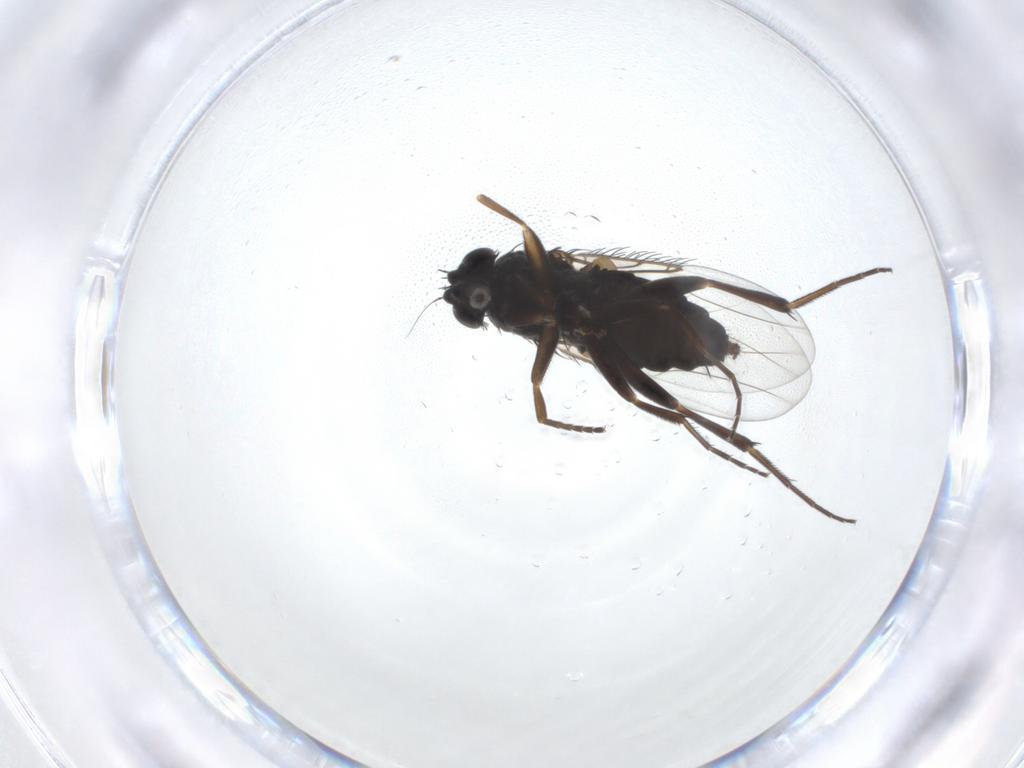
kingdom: Animalia
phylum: Arthropoda
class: Insecta
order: Diptera
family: Phoridae
